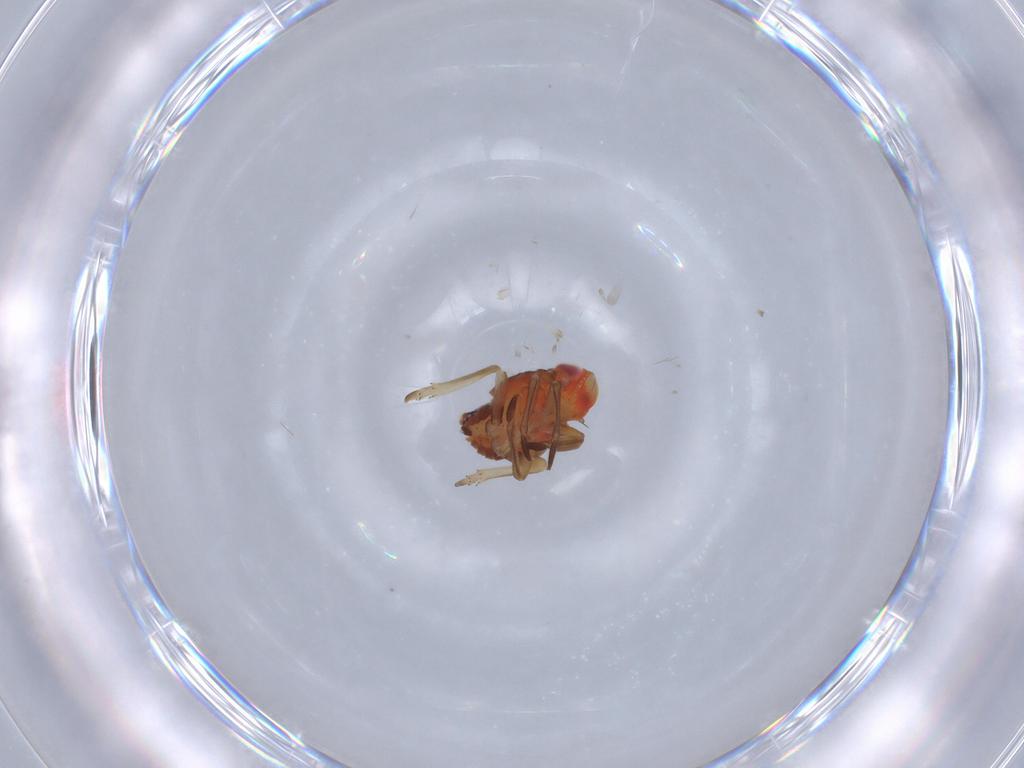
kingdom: Animalia
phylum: Arthropoda
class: Insecta
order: Hemiptera
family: Fulgoroidea_incertae_sedis
